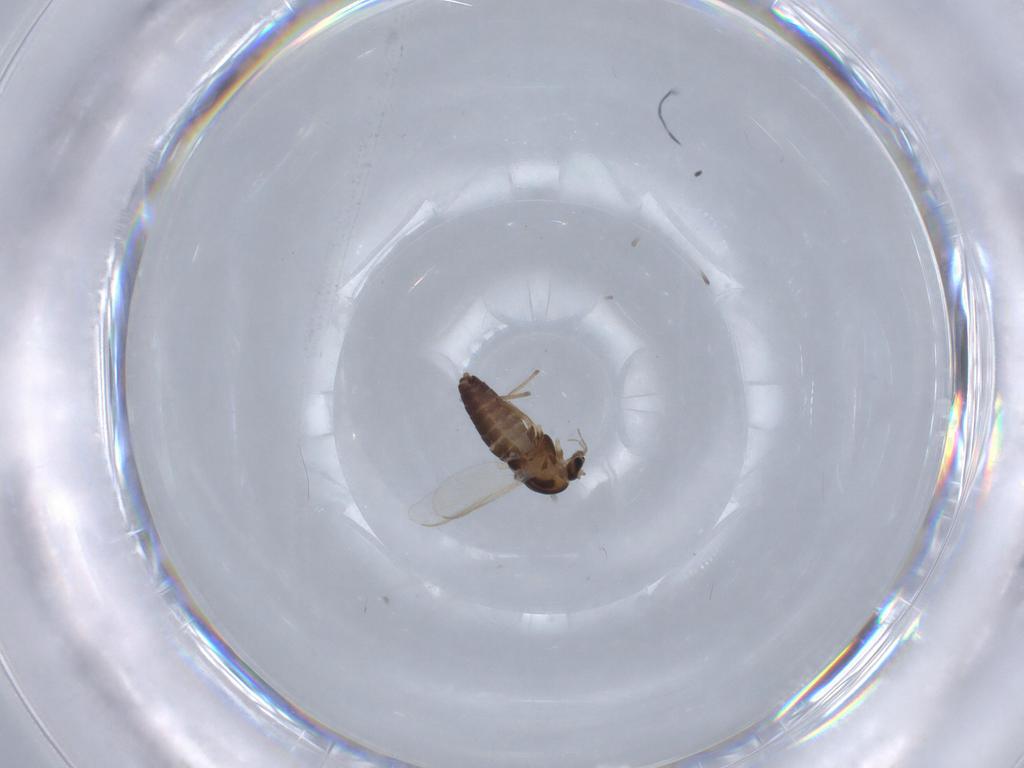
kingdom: Animalia
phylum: Arthropoda
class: Insecta
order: Diptera
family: Chironomidae
